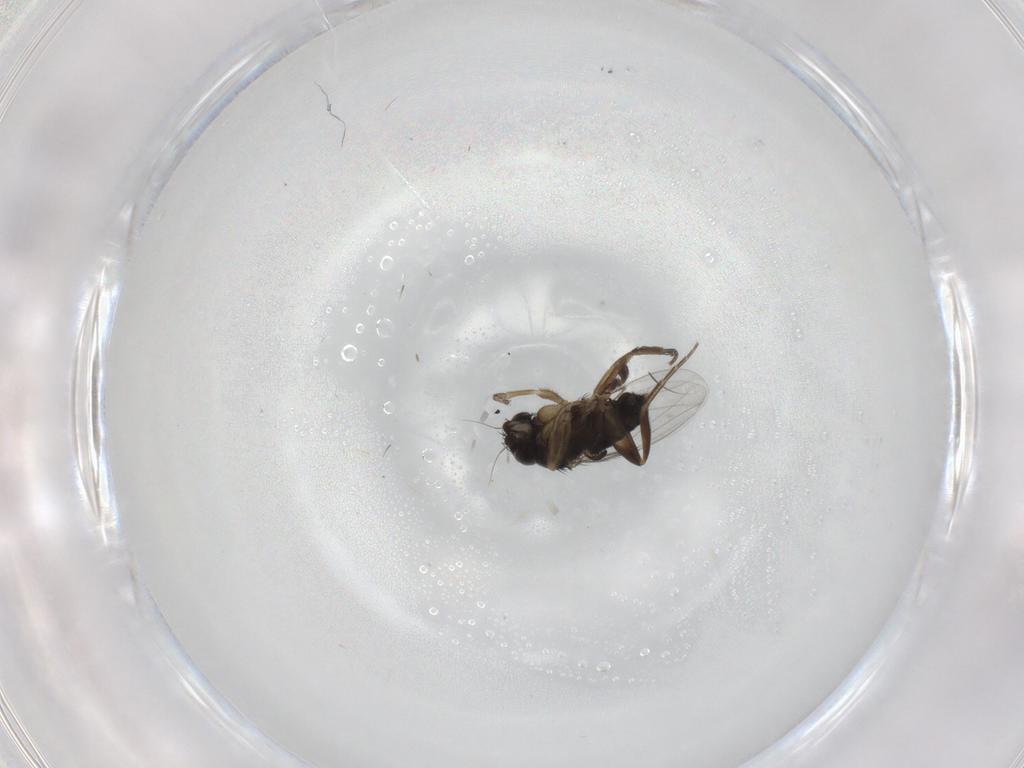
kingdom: Animalia
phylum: Arthropoda
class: Insecta
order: Diptera
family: Phoridae
